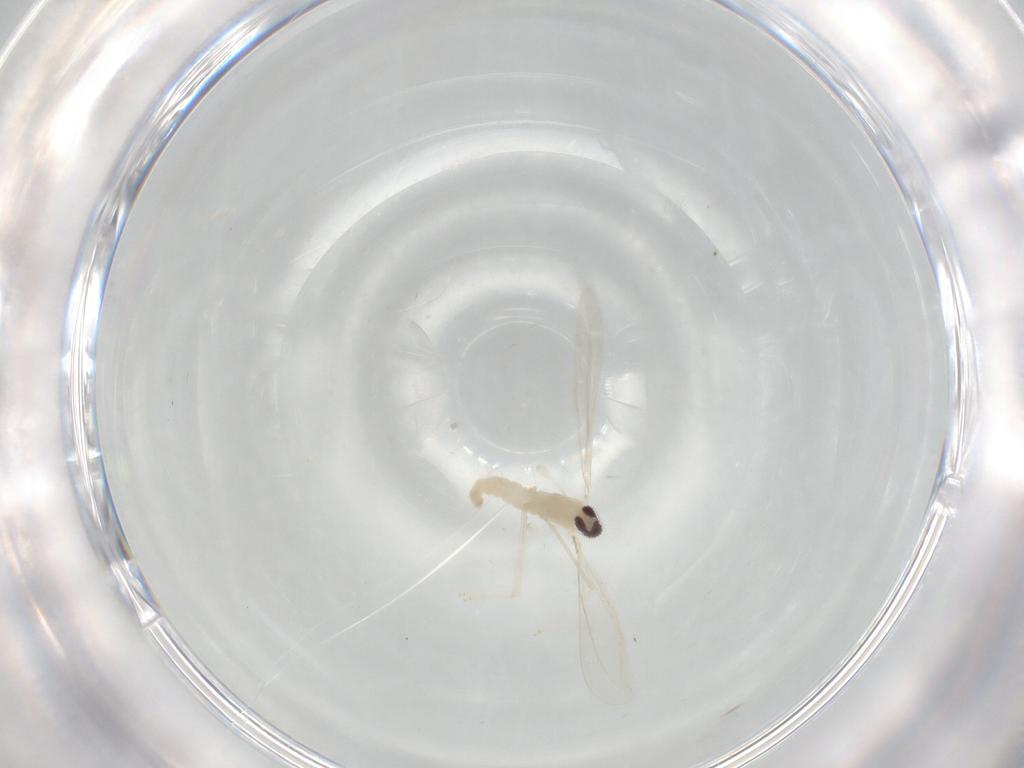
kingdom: Animalia
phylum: Arthropoda
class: Insecta
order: Diptera
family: Cecidomyiidae
